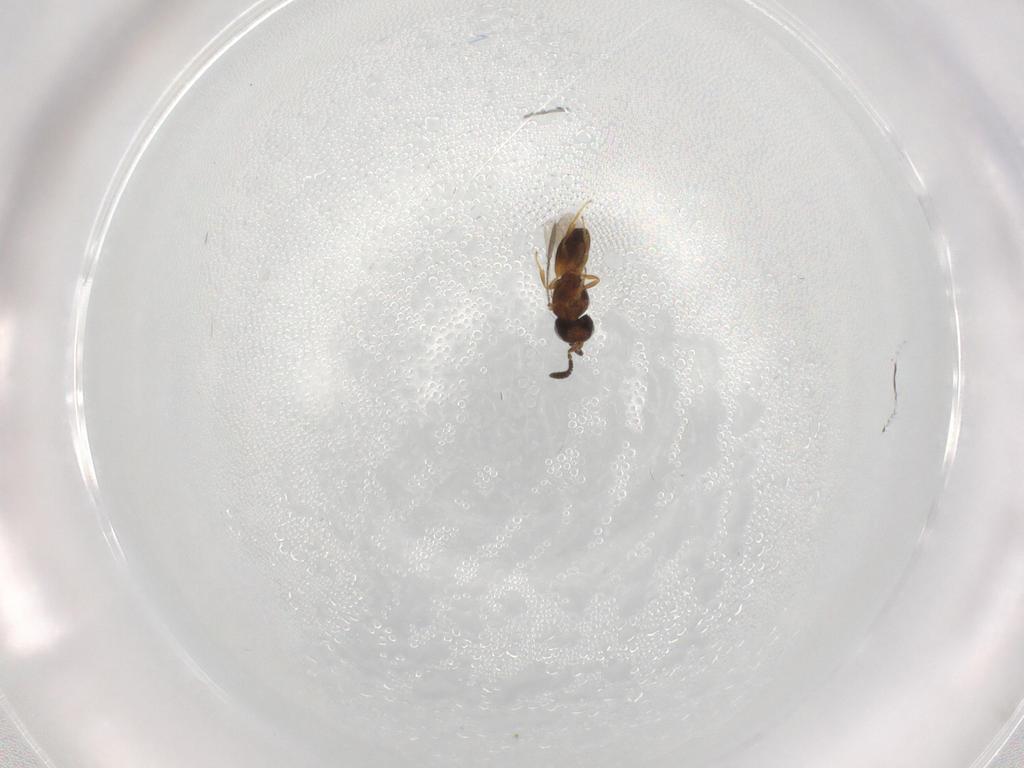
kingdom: Animalia
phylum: Arthropoda
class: Insecta
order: Hymenoptera
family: Scelionidae
